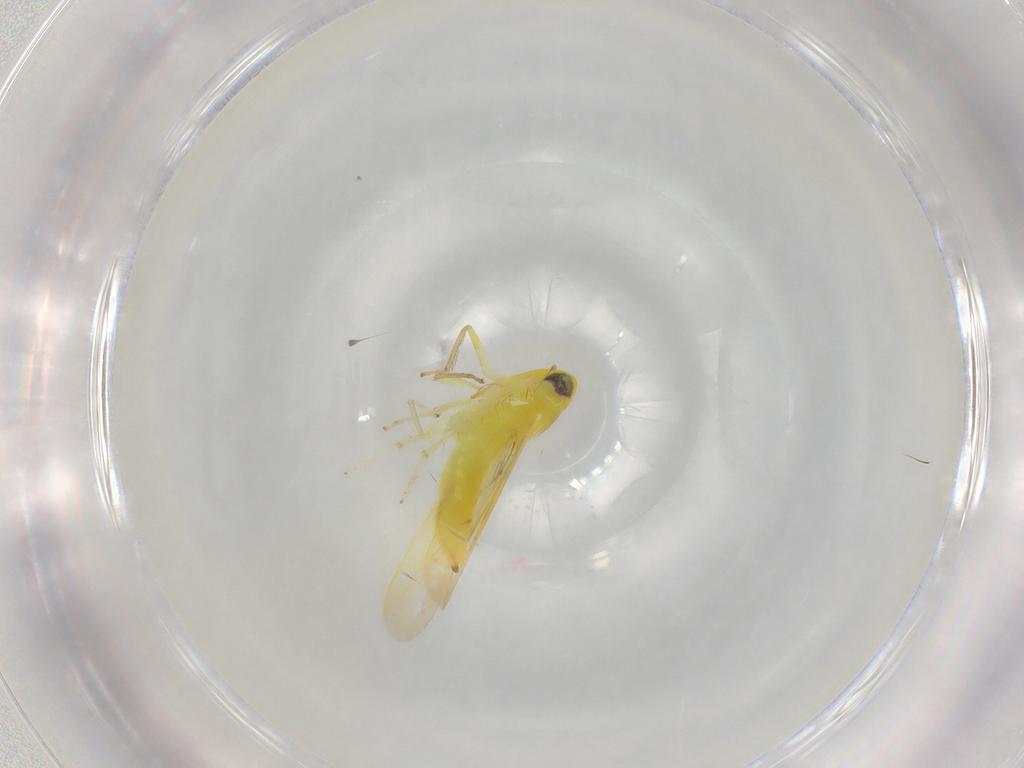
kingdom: Animalia
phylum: Arthropoda
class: Insecta
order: Hemiptera
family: Cicadellidae
